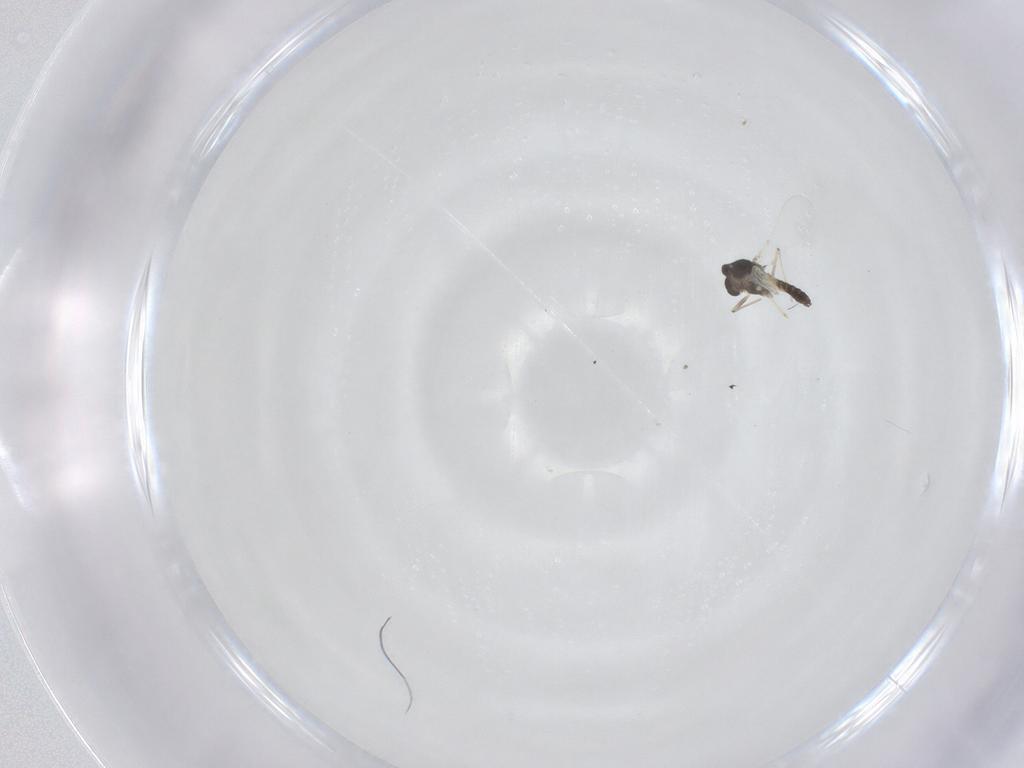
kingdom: Animalia
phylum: Arthropoda
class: Insecta
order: Diptera
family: Chironomidae
